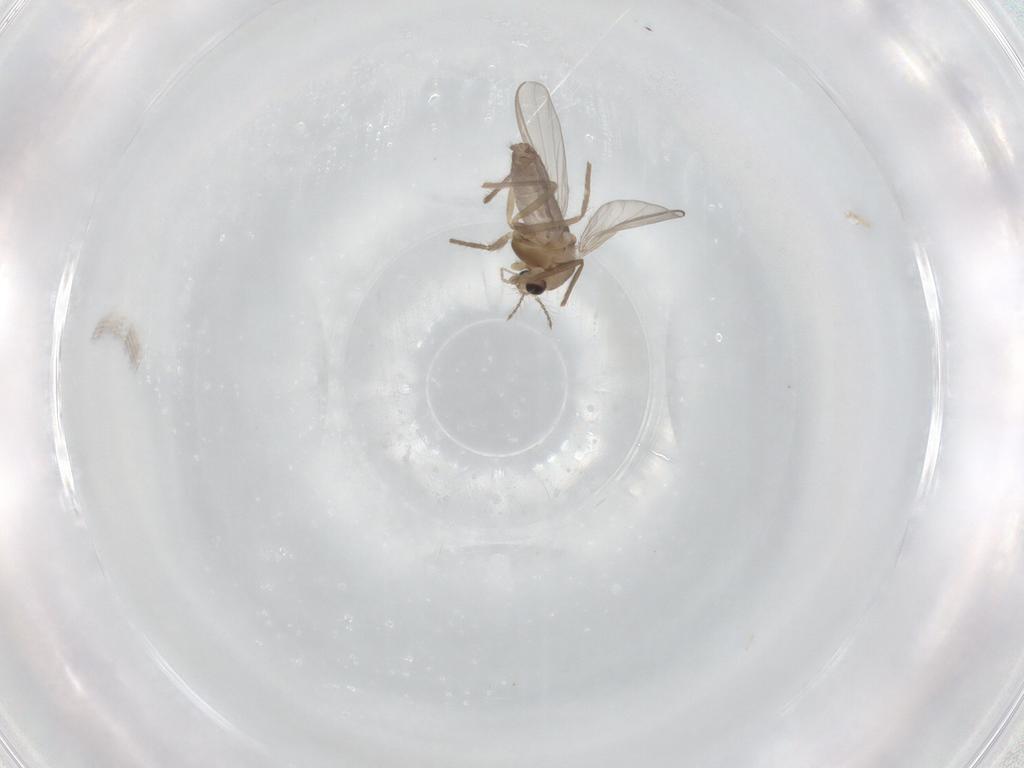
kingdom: Animalia
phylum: Arthropoda
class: Insecta
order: Diptera
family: Chironomidae
